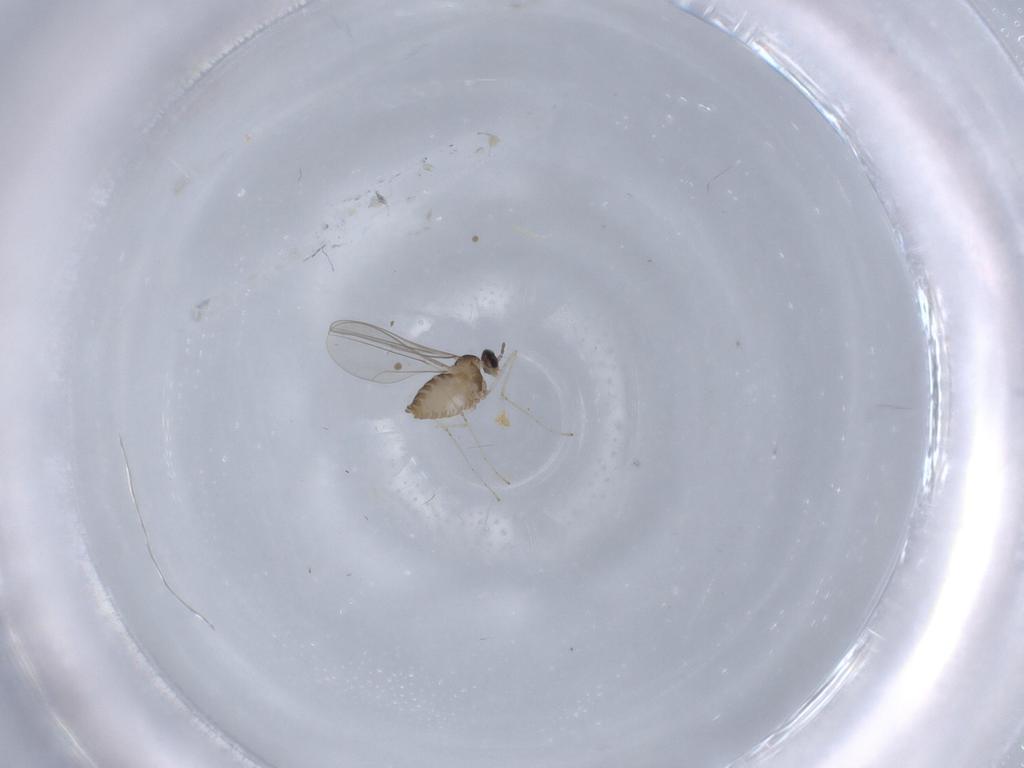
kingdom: Animalia
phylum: Arthropoda
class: Insecta
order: Diptera
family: Cecidomyiidae
